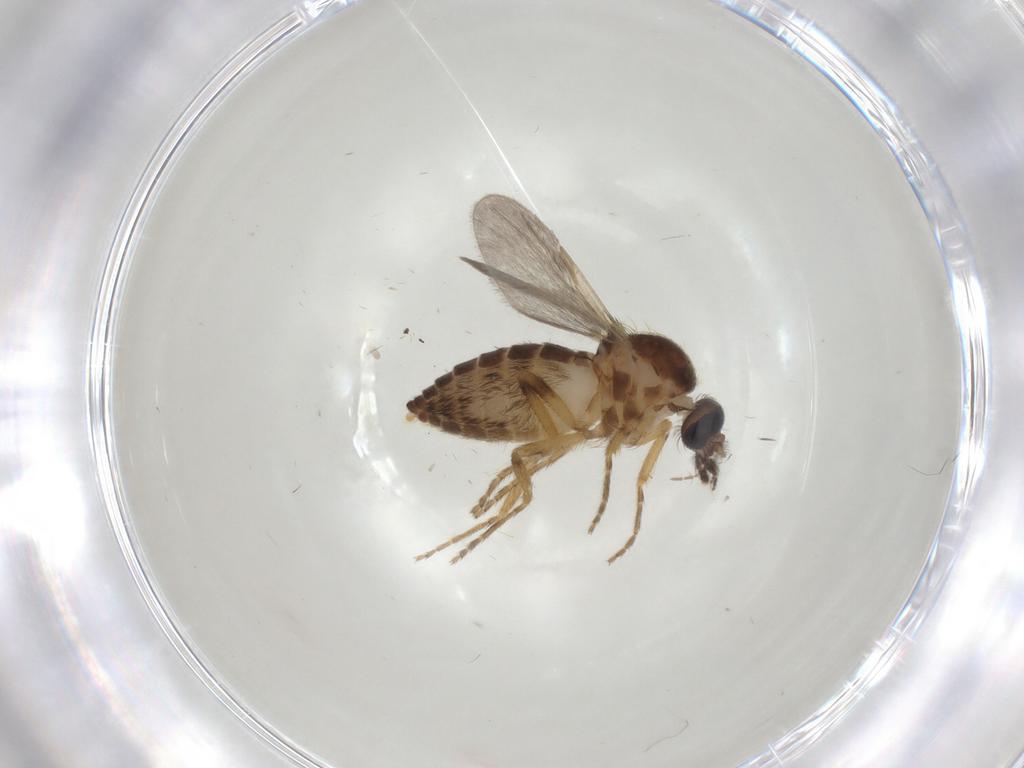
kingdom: Animalia
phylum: Arthropoda
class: Insecta
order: Diptera
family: Ceratopogonidae
